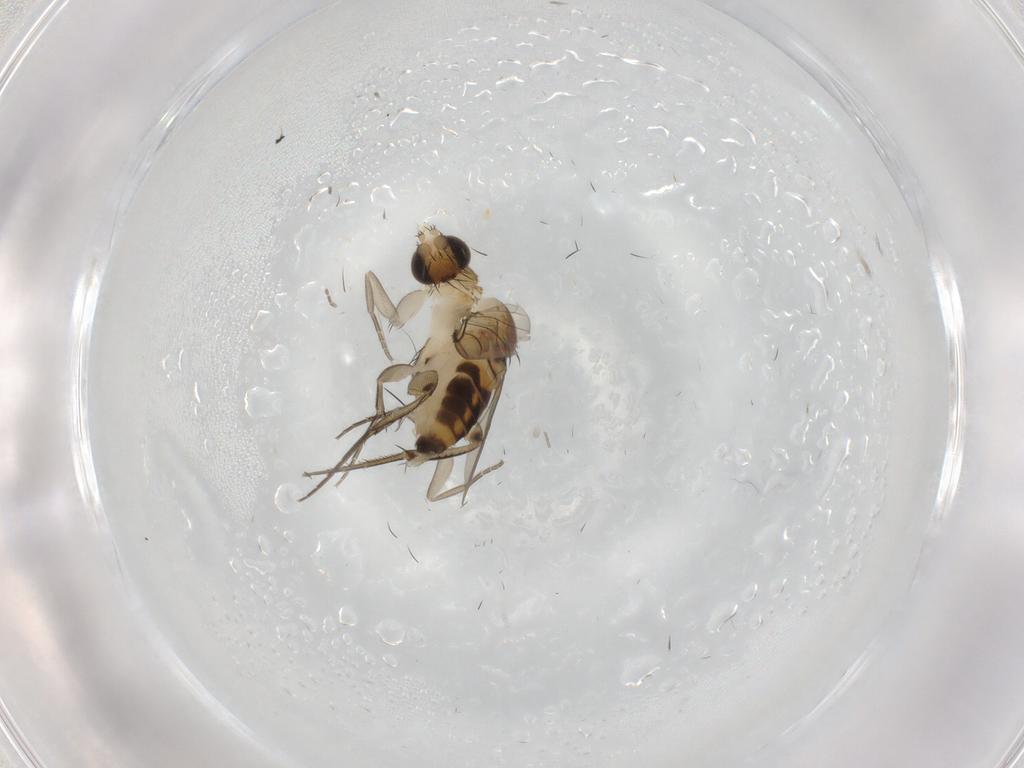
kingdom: Animalia
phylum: Arthropoda
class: Insecta
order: Diptera
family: Phoridae
